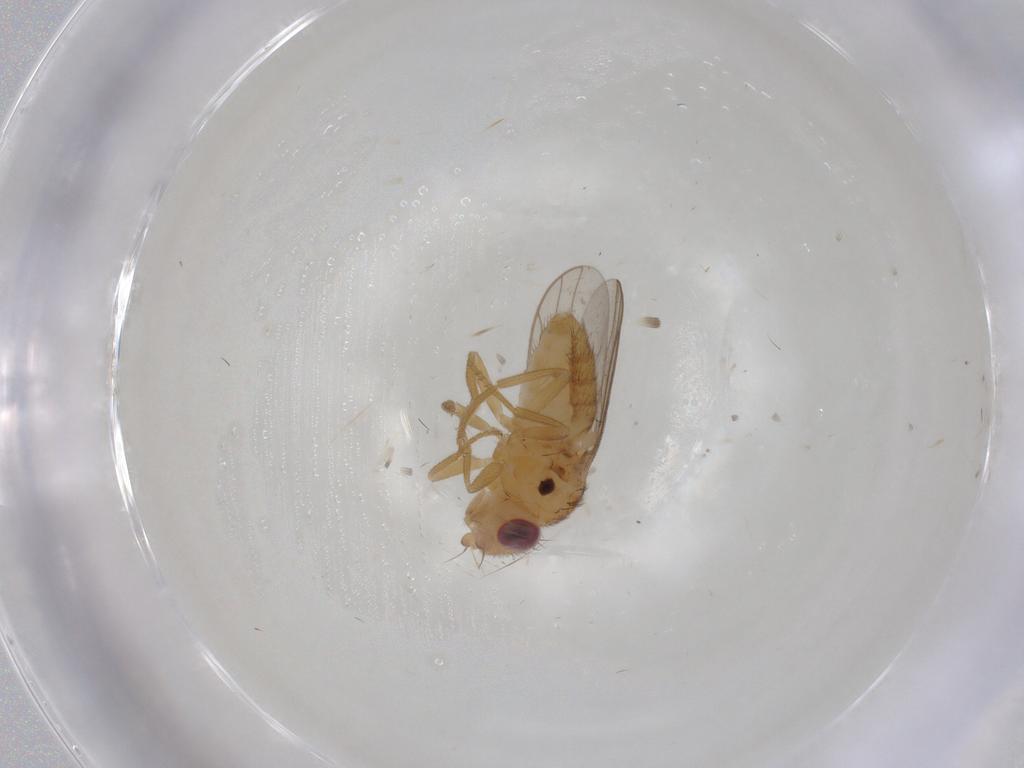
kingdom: Animalia
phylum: Arthropoda
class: Insecta
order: Diptera
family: Chloropidae
